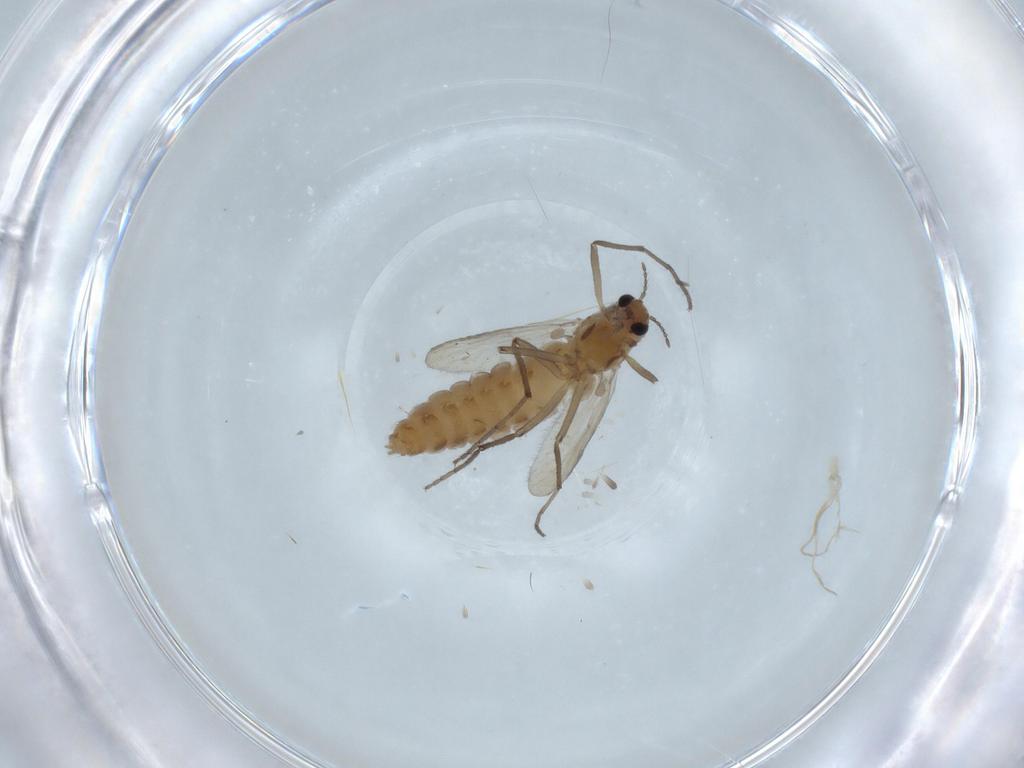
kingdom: Animalia
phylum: Arthropoda
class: Insecta
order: Diptera
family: Chironomidae
